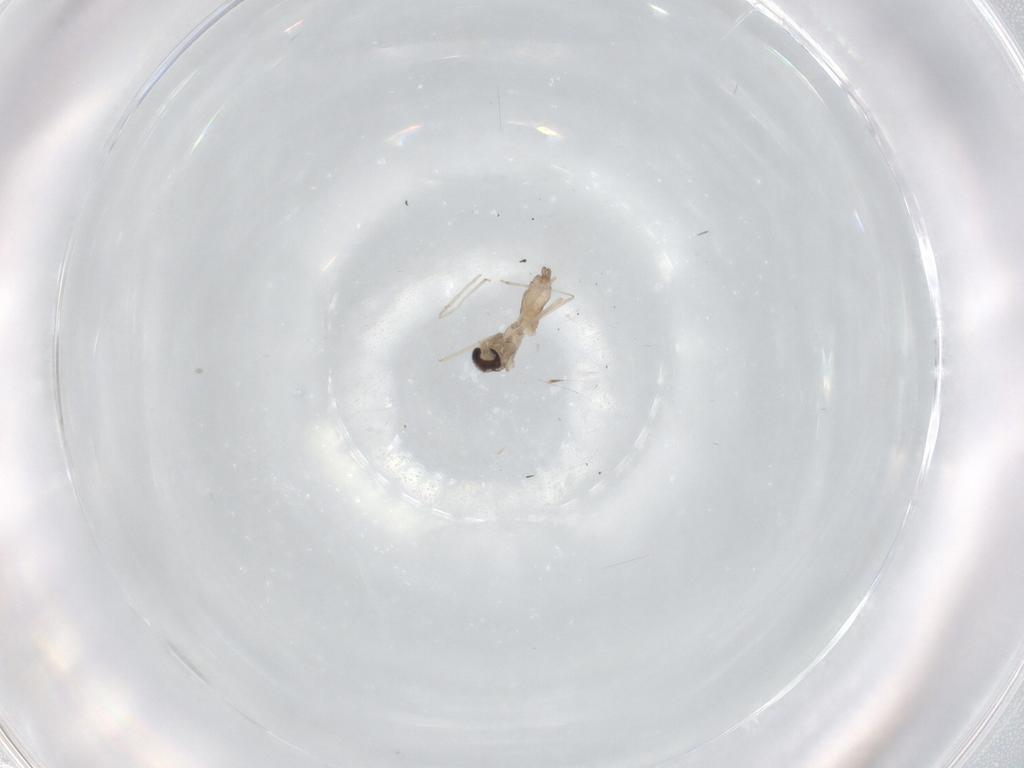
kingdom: Animalia
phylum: Arthropoda
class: Insecta
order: Diptera
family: Cecidomyiidae
